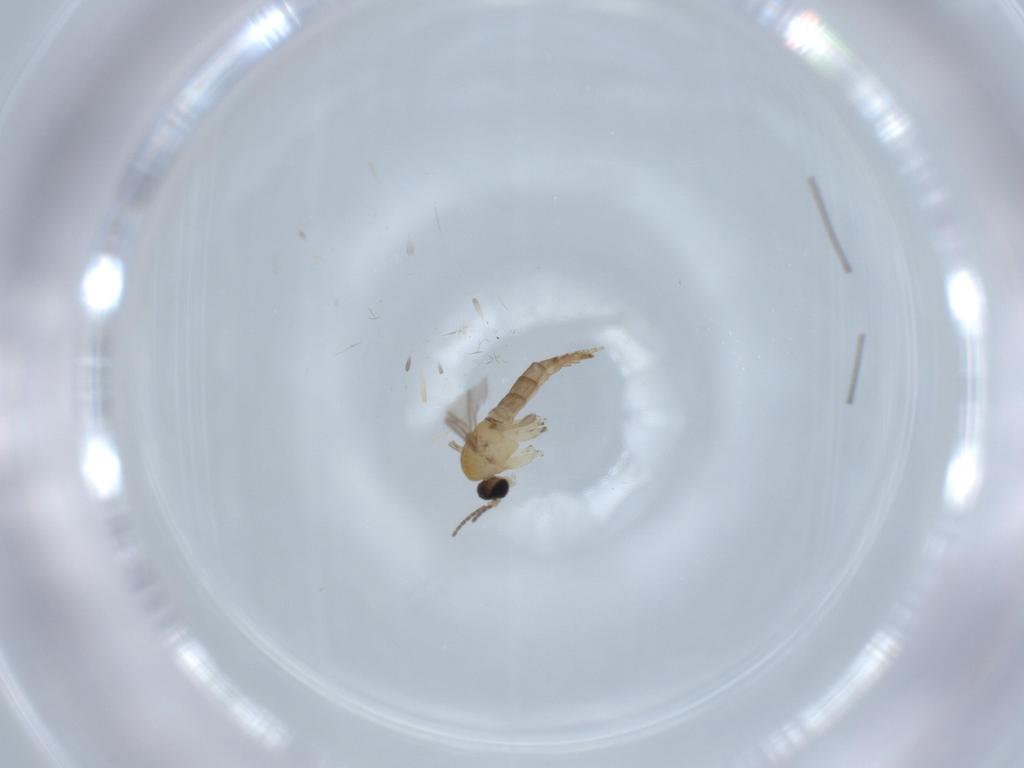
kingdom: Animalia
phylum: Arthropoda
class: Insecta
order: Diptera
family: Sciaridae
